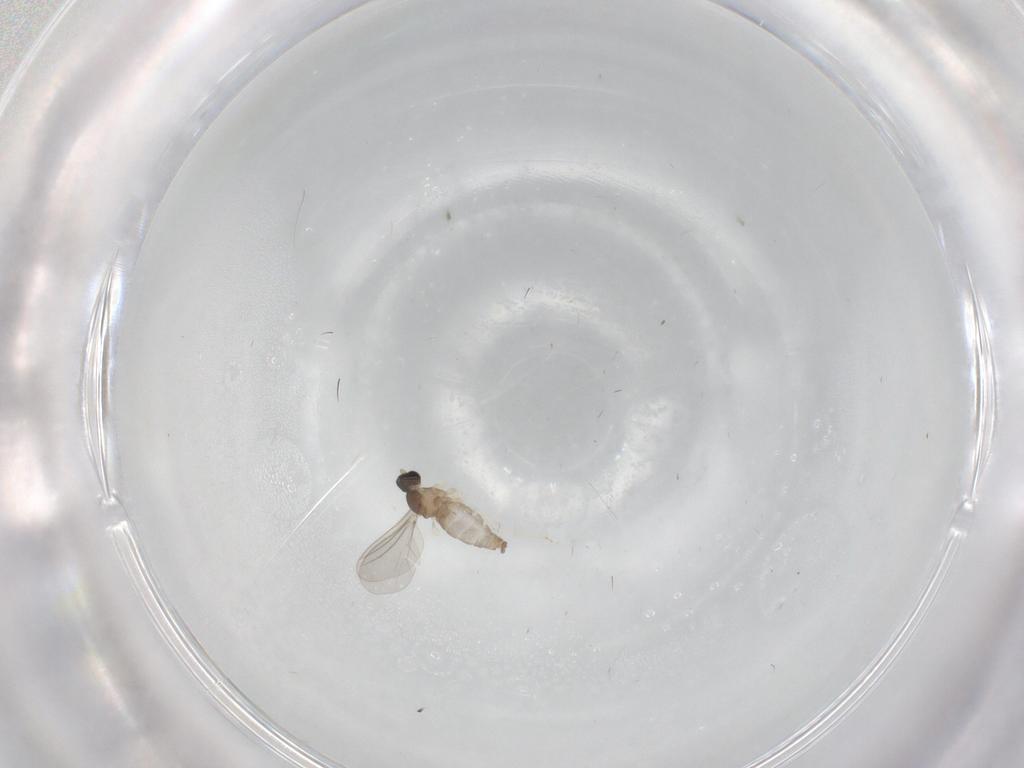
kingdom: Animalia
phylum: Arthropoda
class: Insecta
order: Diptera
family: Cecidomyiidae
